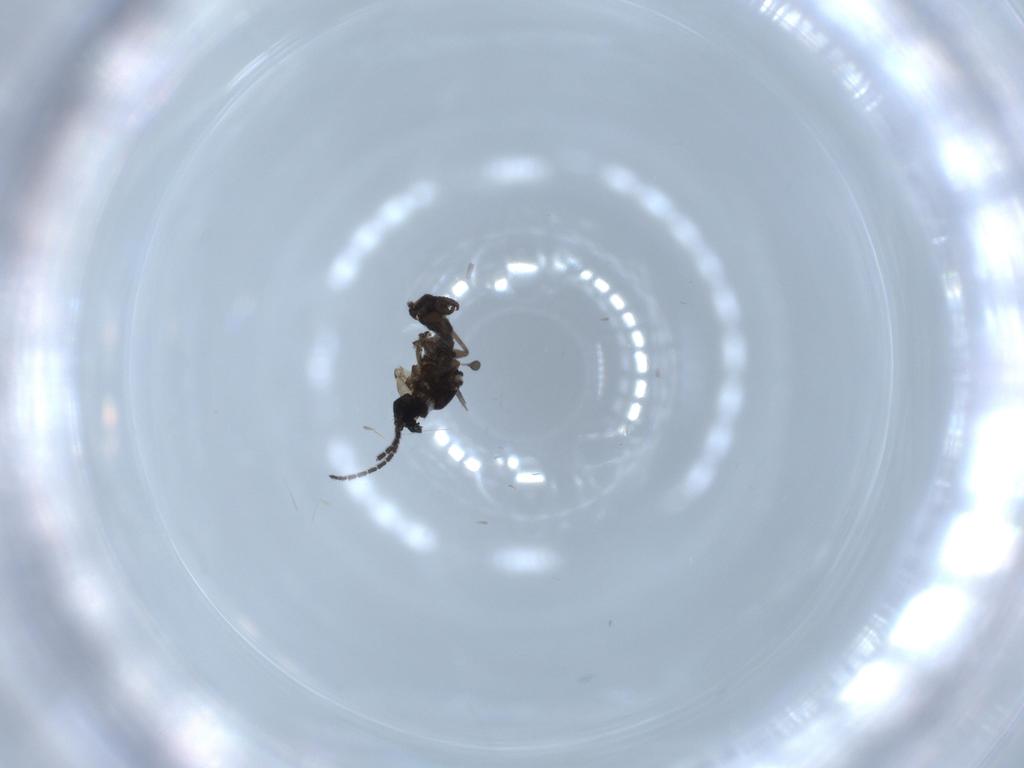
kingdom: Animalia
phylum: Arthropoda
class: Insecta
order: Diptera
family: Sciaridae
